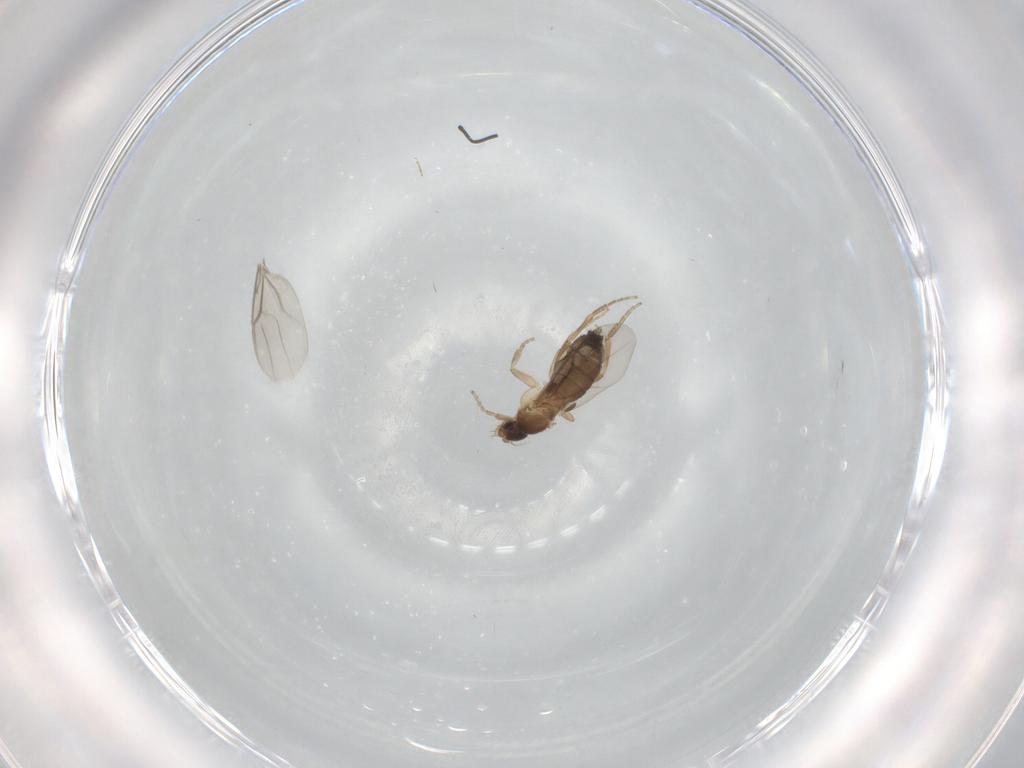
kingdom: Animalia
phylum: Arthropoda
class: Insecta
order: Diptera
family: Phoridae
